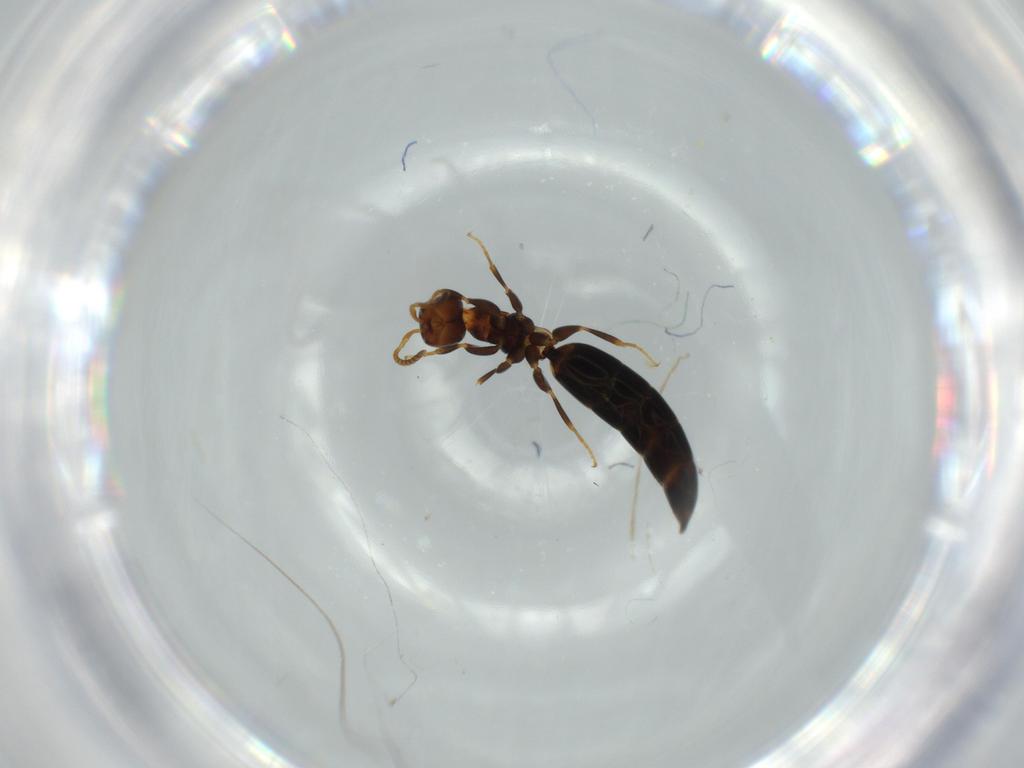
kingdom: Animalia
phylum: Arthropoda
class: Insecta
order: Hymenoptera
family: Bethylidae
